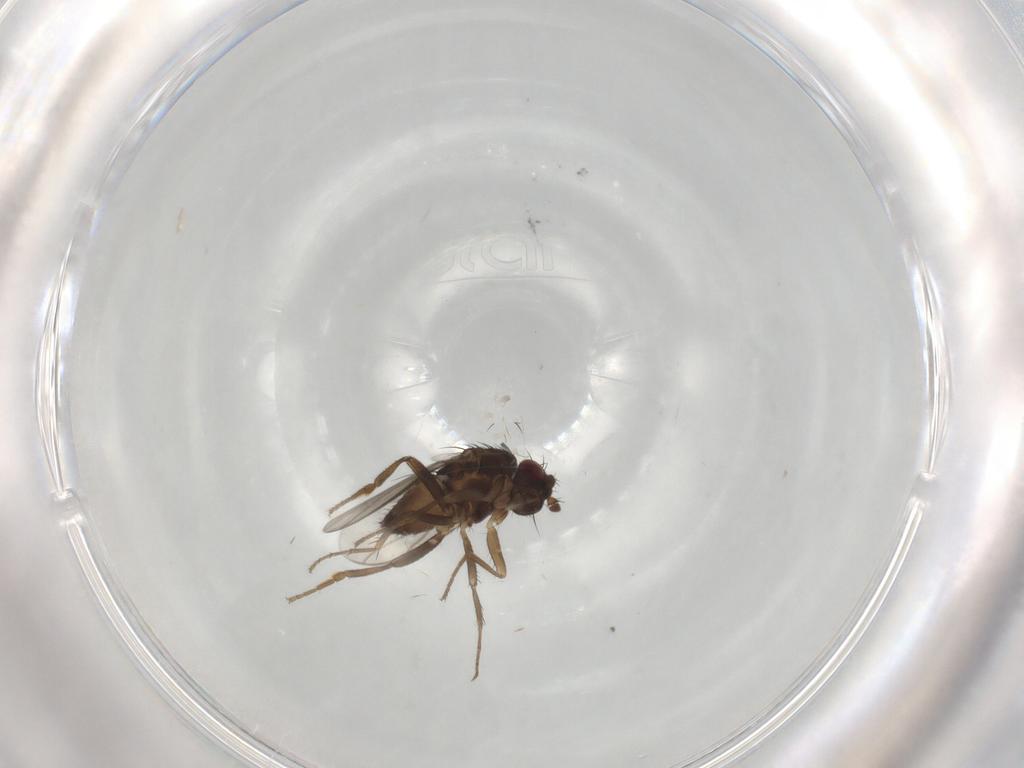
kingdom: Animalia
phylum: Arthropoda
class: Insecta
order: Diptera
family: Sphaeroceridae
